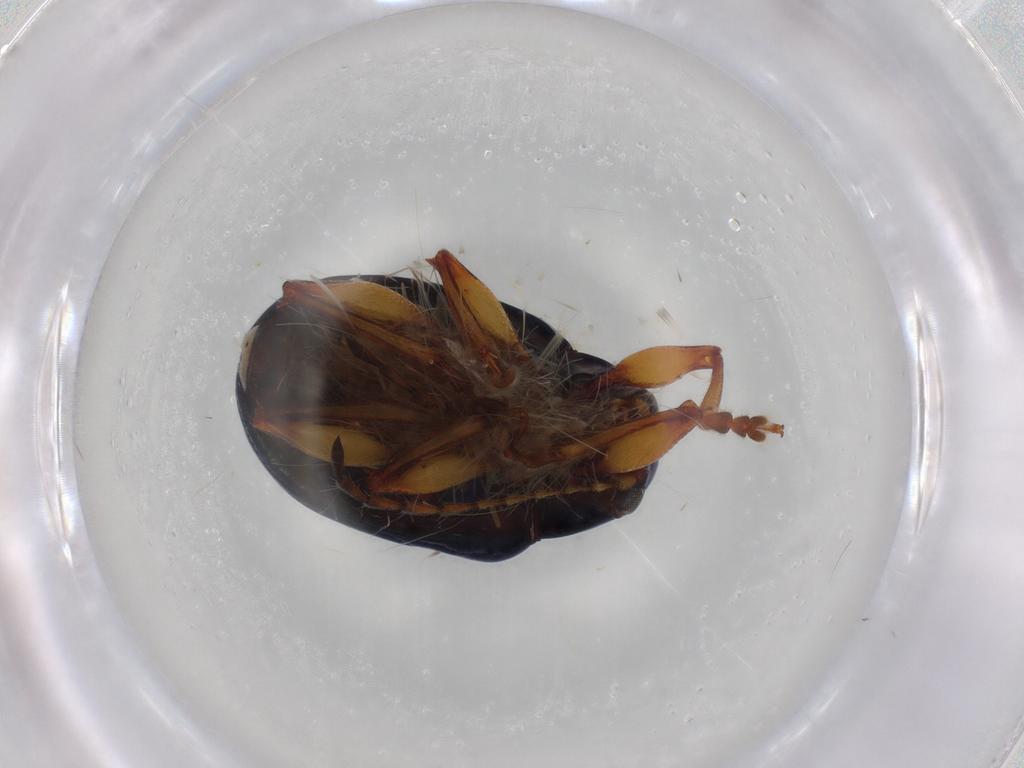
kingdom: Animalia
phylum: Arthropoda
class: Insecta
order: Coleoptera
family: Chrysomelidae
